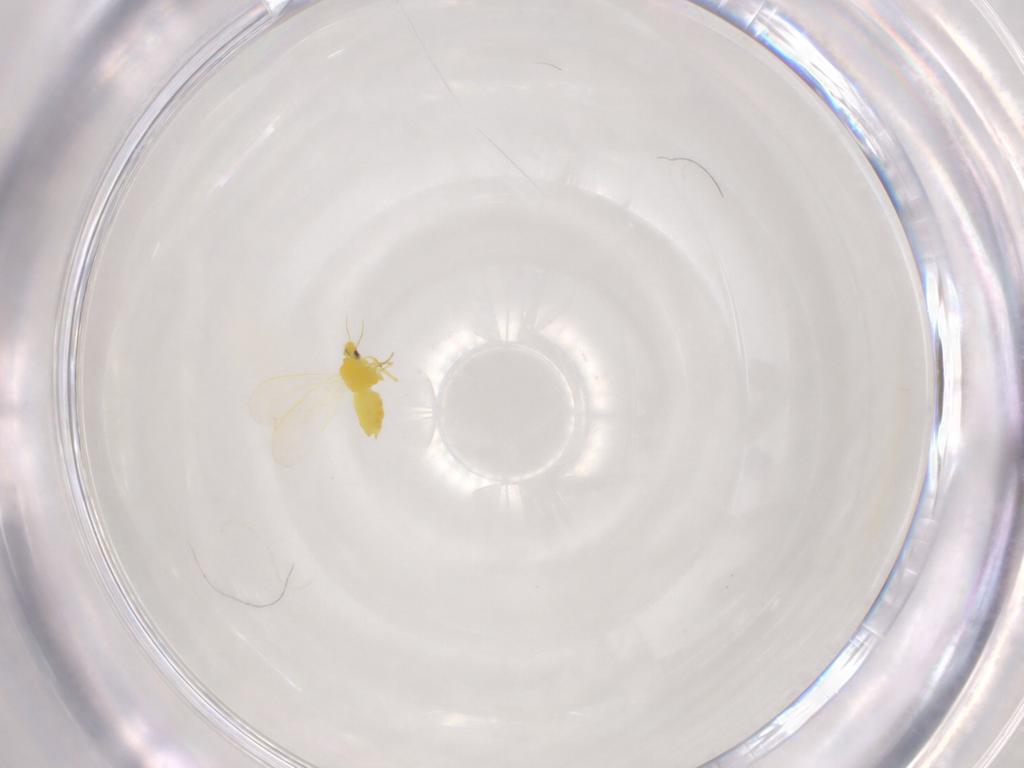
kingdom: Animalia
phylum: Arthropoda
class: Insecta
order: Hemiptera
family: Aleyrodidae
